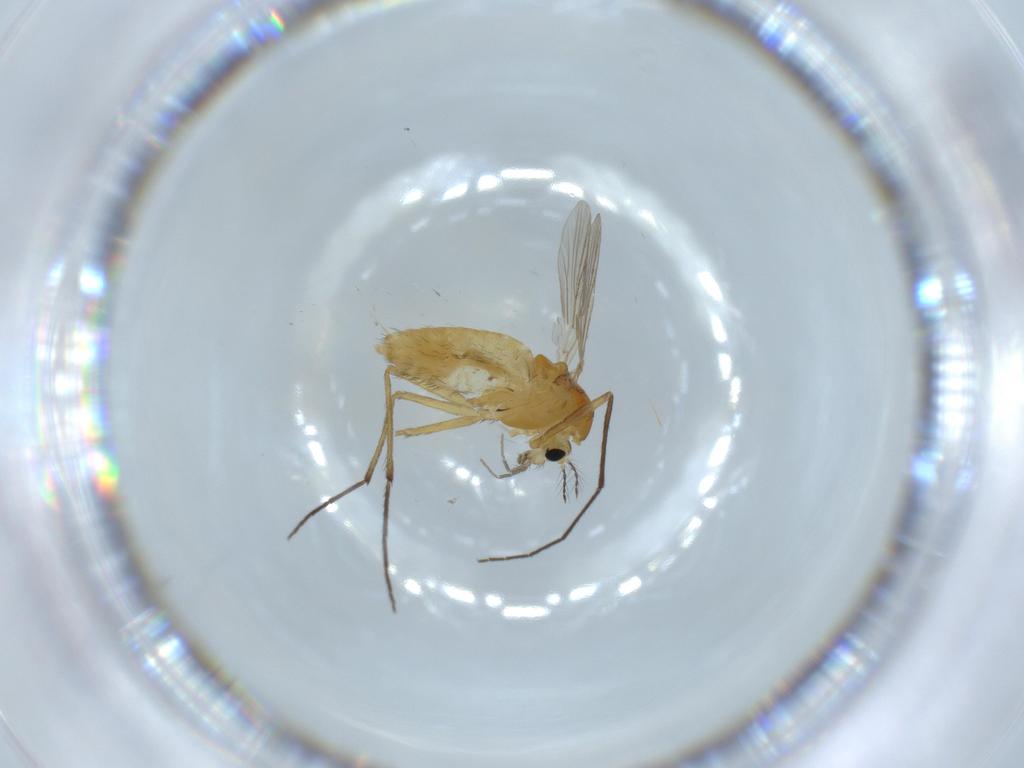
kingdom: Animalia
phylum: Arthropoda
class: Insecta
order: Diptera
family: Chironomidae
